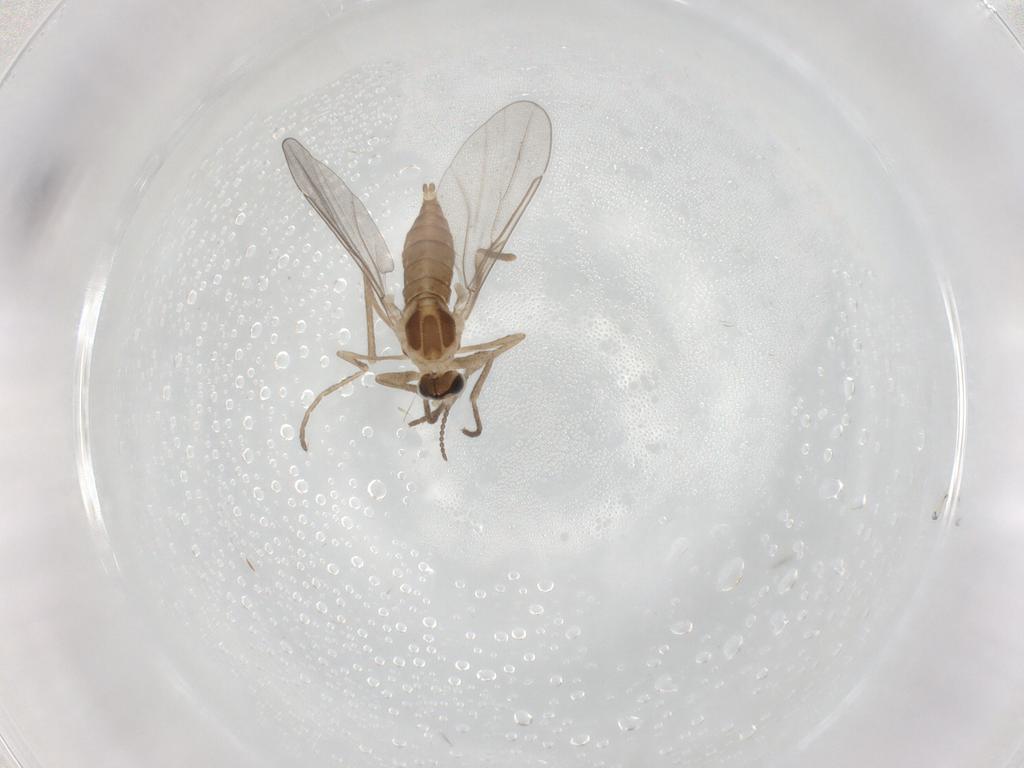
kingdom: Animalia
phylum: Arthropoda
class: Insecta
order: Diptera
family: Cecidomyiidae
